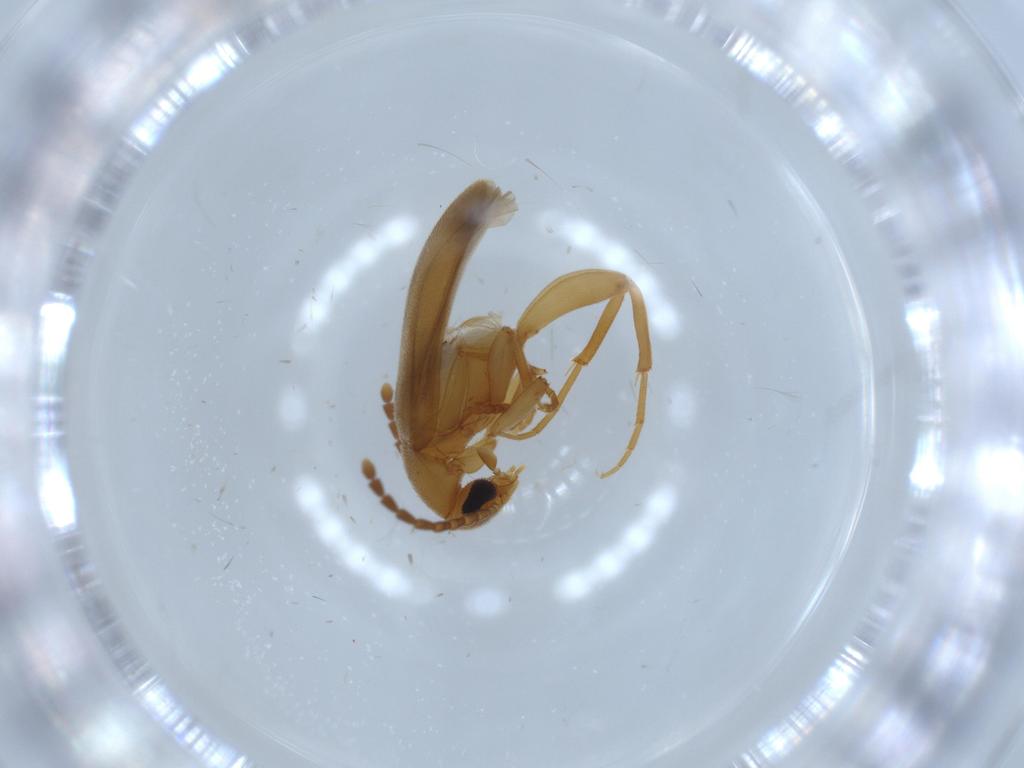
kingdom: Animalia
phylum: Arthropoda
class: Insecta
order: Coleoptera
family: Scraptiidae
